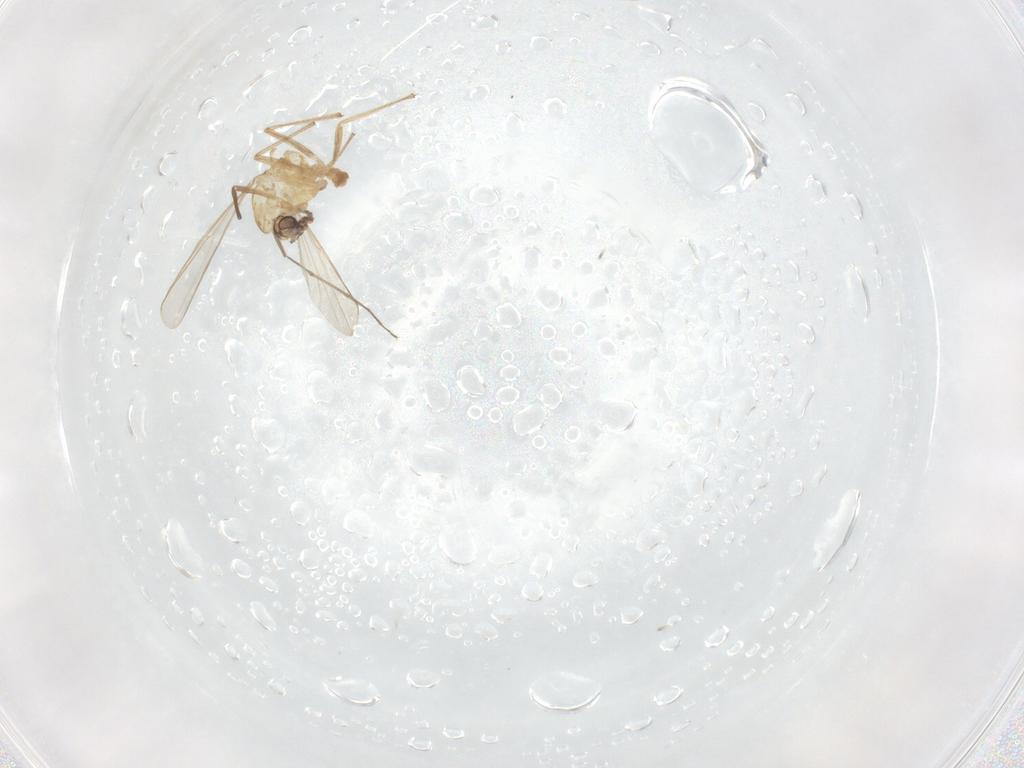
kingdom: Animalia
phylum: Arthropoda
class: Insecta
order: Diptera
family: Chironomidae
